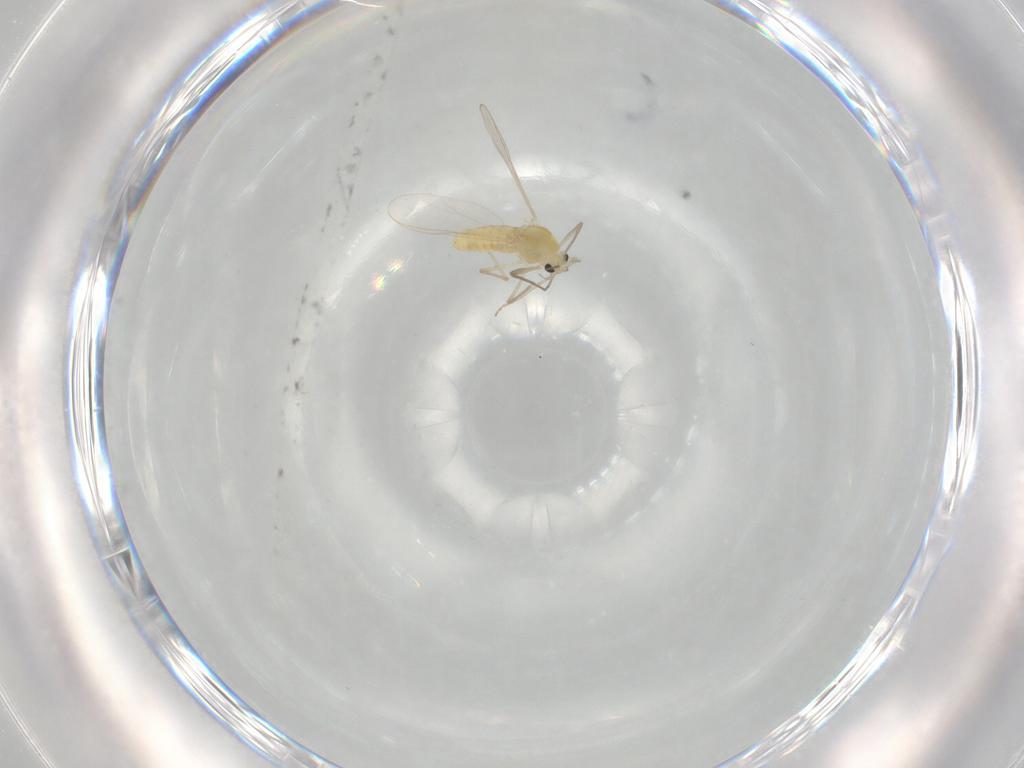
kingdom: Animalia
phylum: Arthropoda
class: Insecta
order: Diptera
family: Chironomidae
